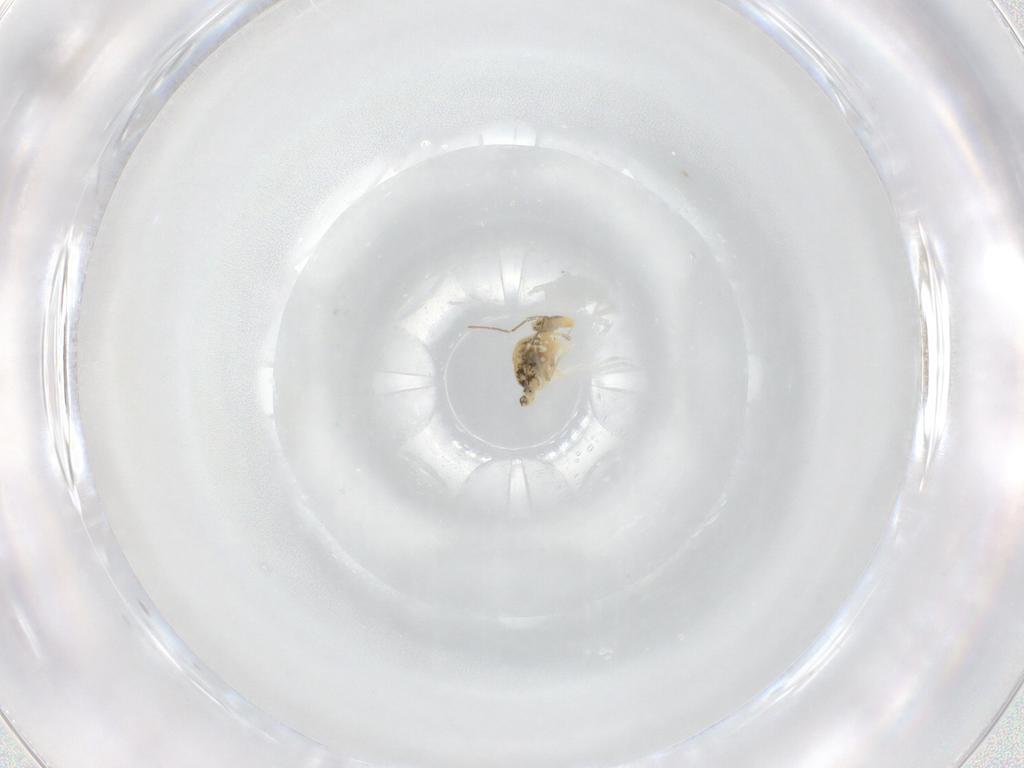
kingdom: Animalia
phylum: Arthropoda
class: Collembola
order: Symphypleona
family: Bourletiellidae
